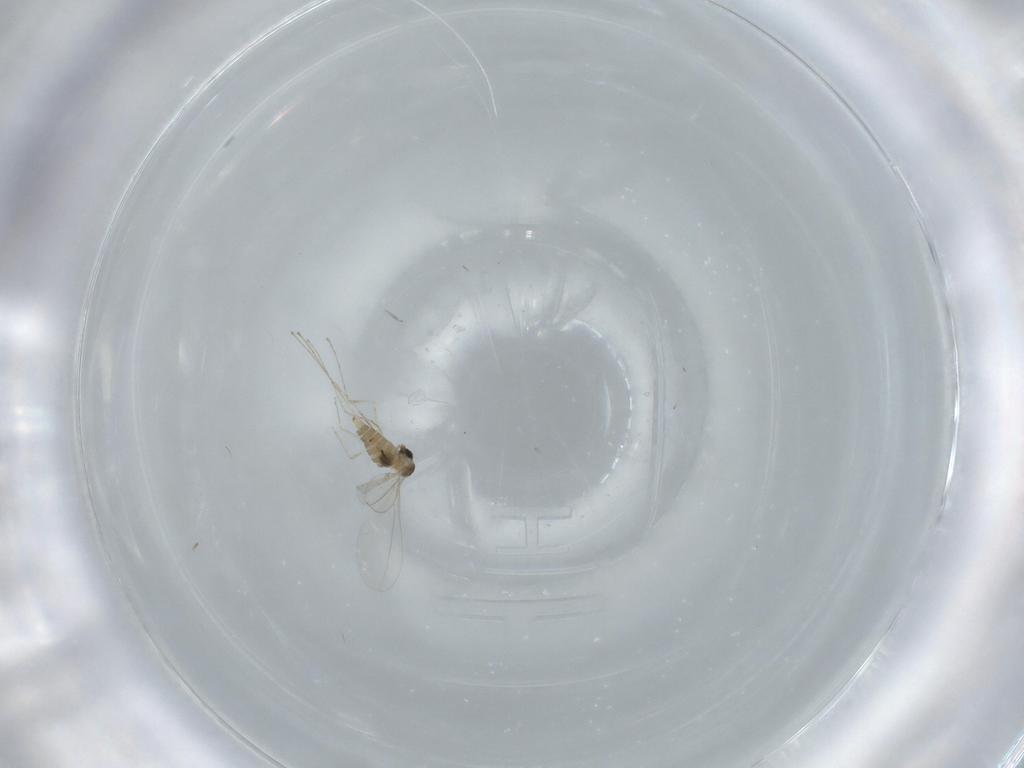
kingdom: Animalia
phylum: Arthropoda
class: Insecta
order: Diptera
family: Cecidomyiidae
